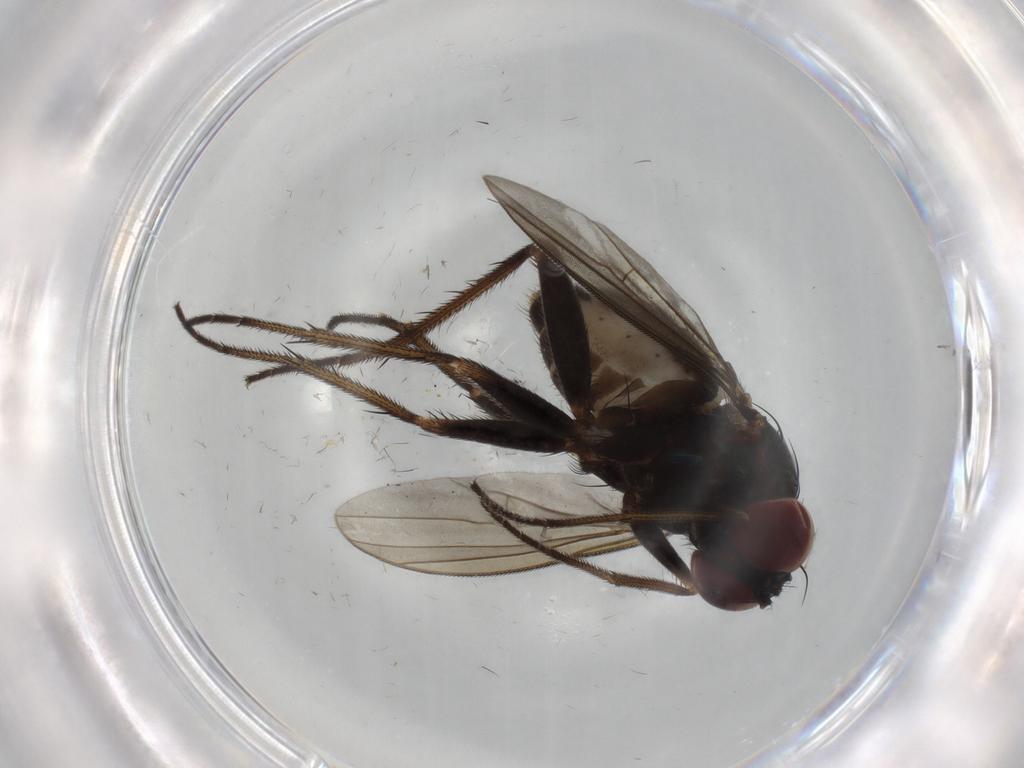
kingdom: Animalia
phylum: Arthropoda
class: Insecta
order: Diptera
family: Dolichopodidae
